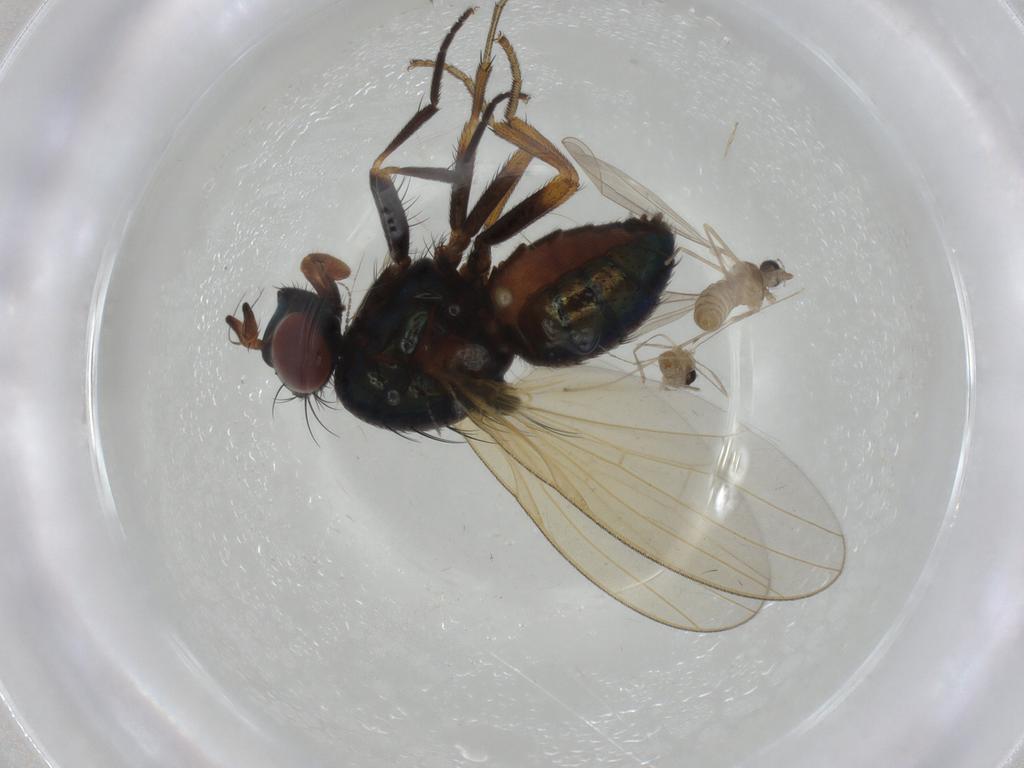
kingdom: Animalia
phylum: Arthropoda
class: Insecta
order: Diptera
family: Lauxaniidae
